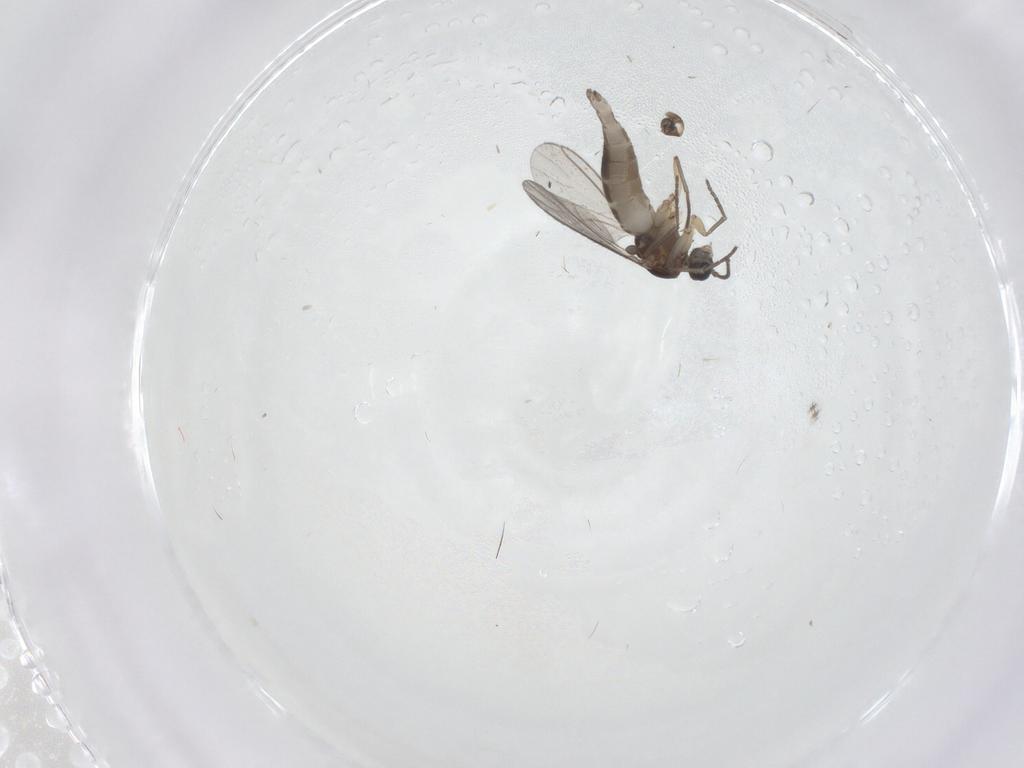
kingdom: Animalia
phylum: Arthropoda
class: Insecta
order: Diptera
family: Sciaridae
